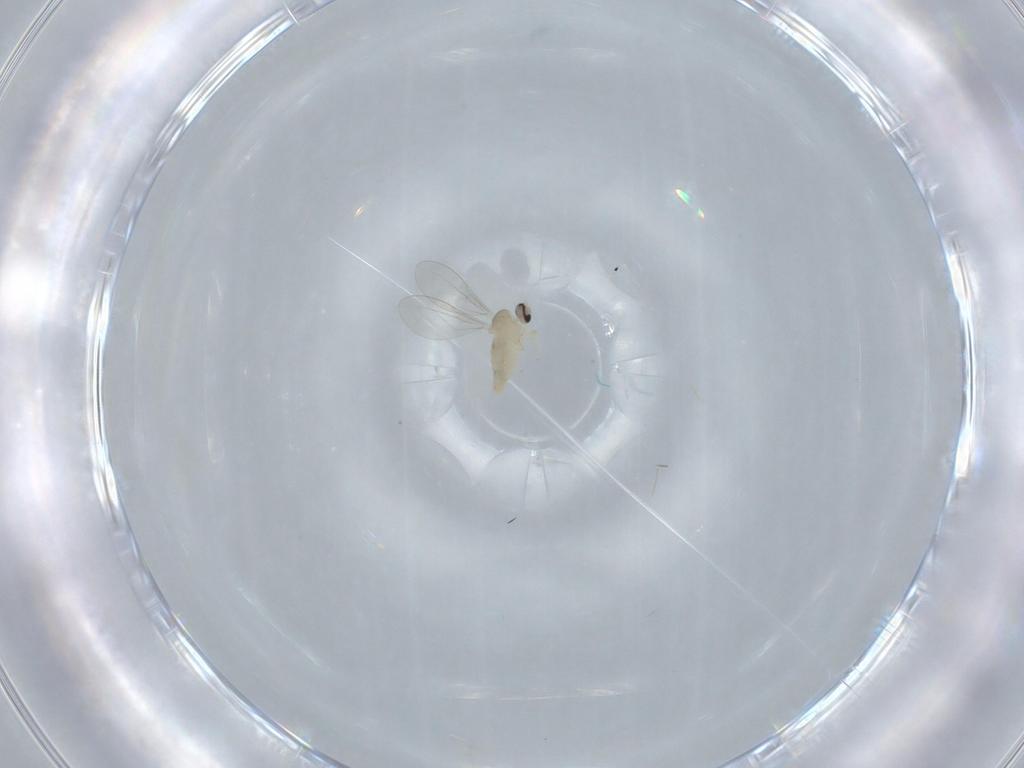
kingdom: Animalia
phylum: Arthropoda
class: Insecta
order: Diptera
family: Cecidomyiidae
